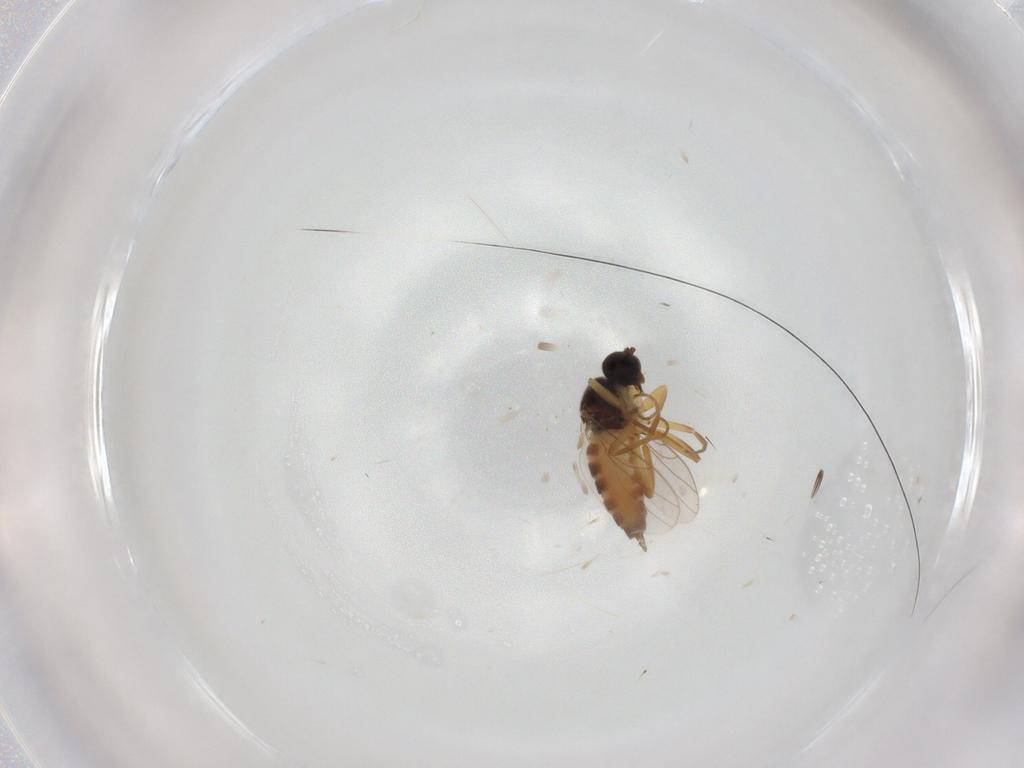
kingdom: Animalia
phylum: Arthropoda
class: Insecta
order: Diptera
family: Hybotidae
